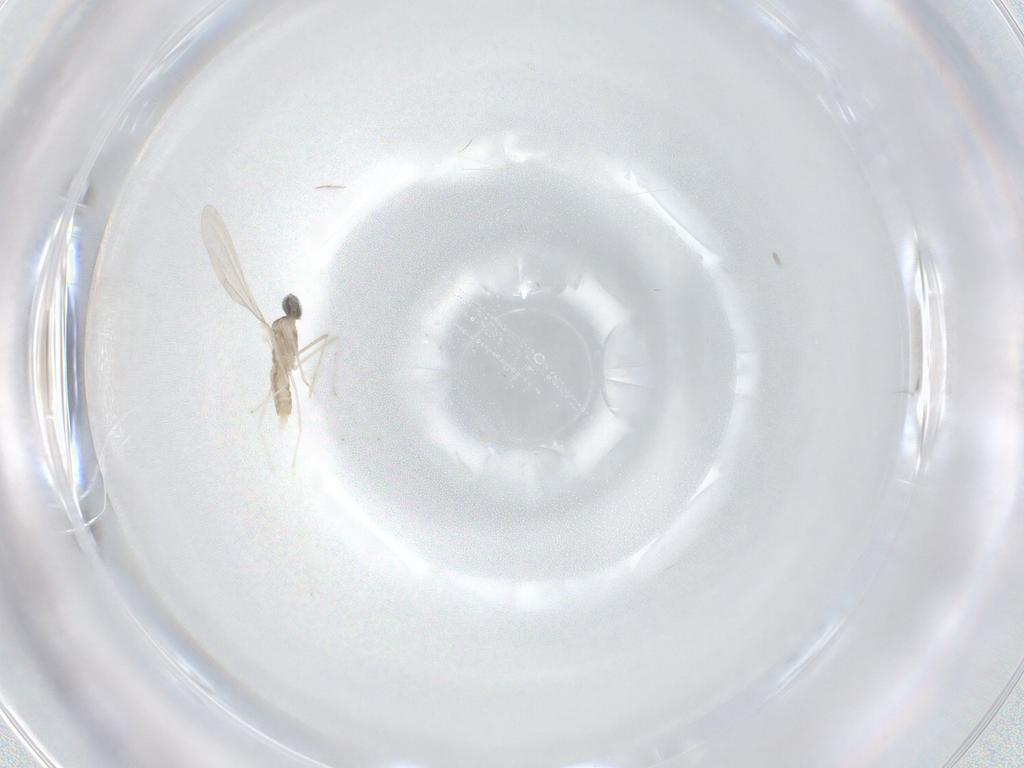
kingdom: Animalia
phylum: Arthropoda
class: Insecta
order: Diptera
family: Cecidomyiidae
